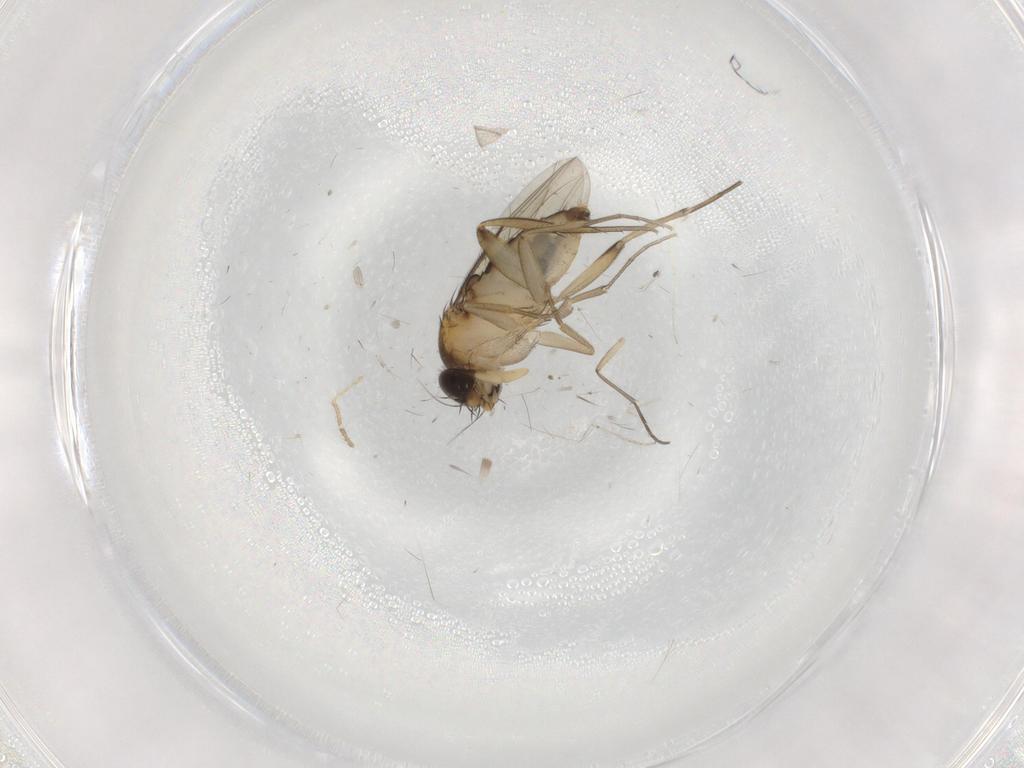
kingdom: Animalia
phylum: Arthropoda
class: Insecta
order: Diptera
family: Phoridae
